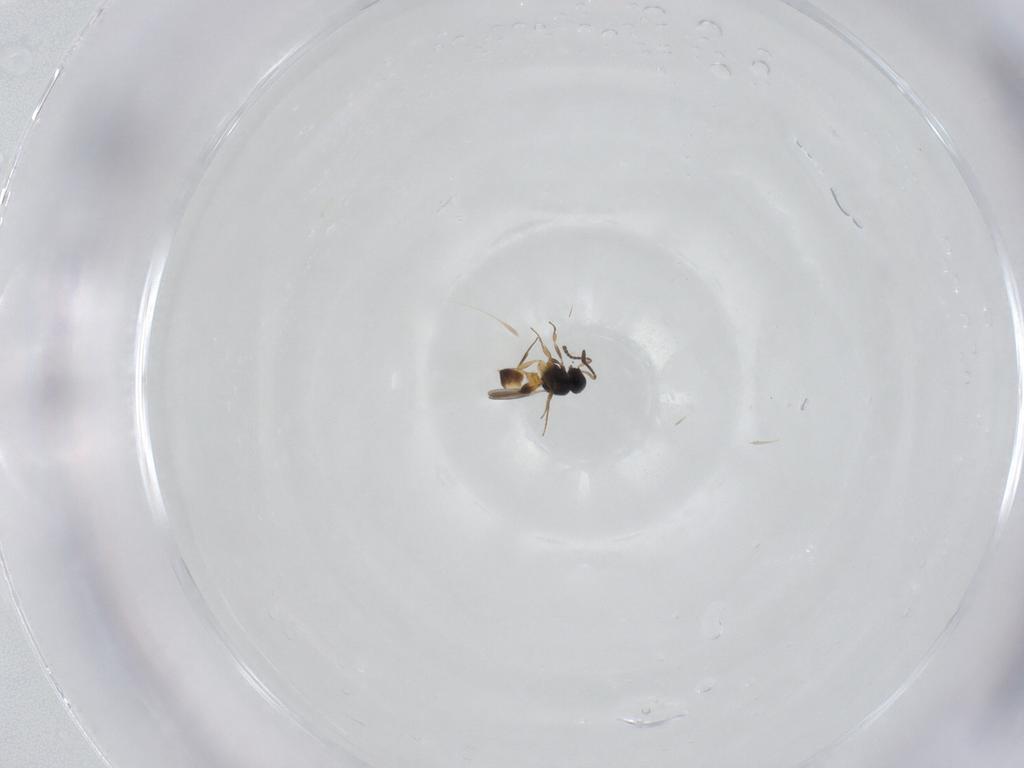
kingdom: Animalia
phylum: Arthropoda
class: Insecta
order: Hymenoptera
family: Scelionidae
